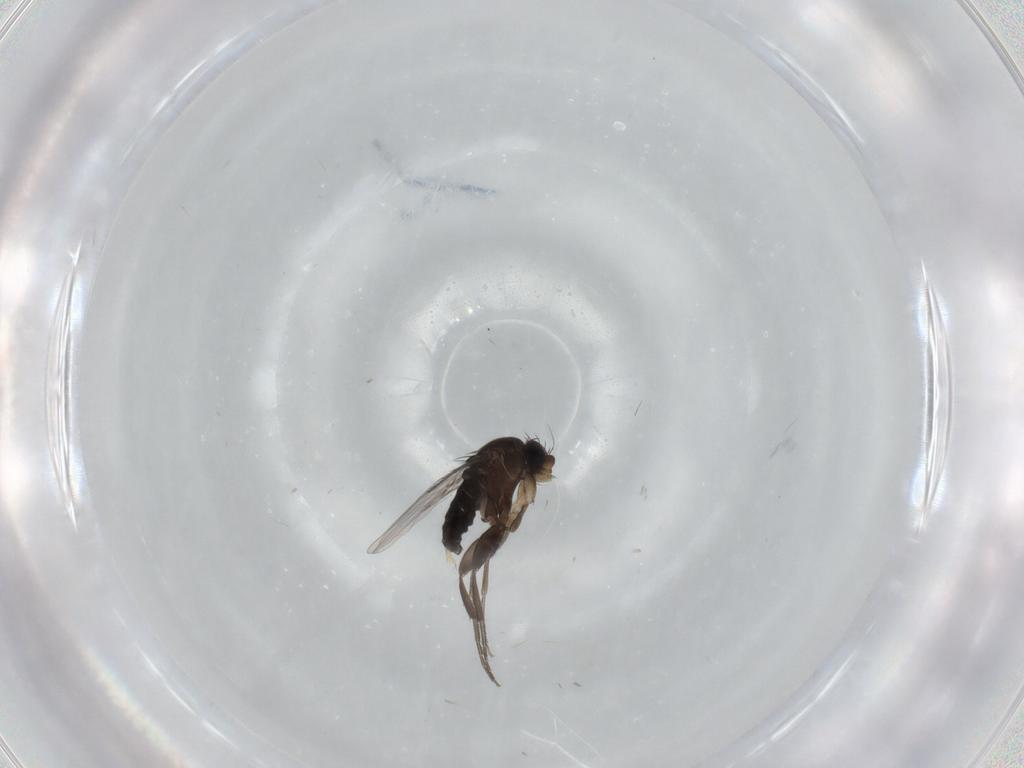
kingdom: Animalia
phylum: Arthropoda
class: Insecta
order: Diptera
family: Phoridae
